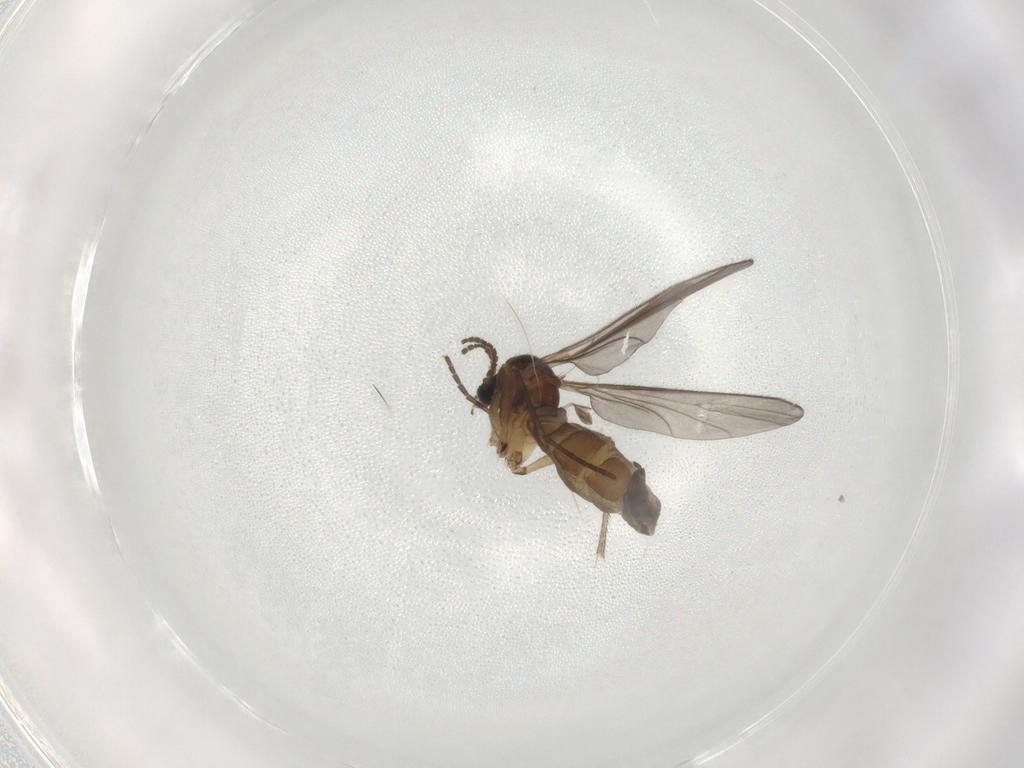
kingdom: Animalia
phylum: Arthropoda
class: Insecta
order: Diptera
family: Sciaridae
